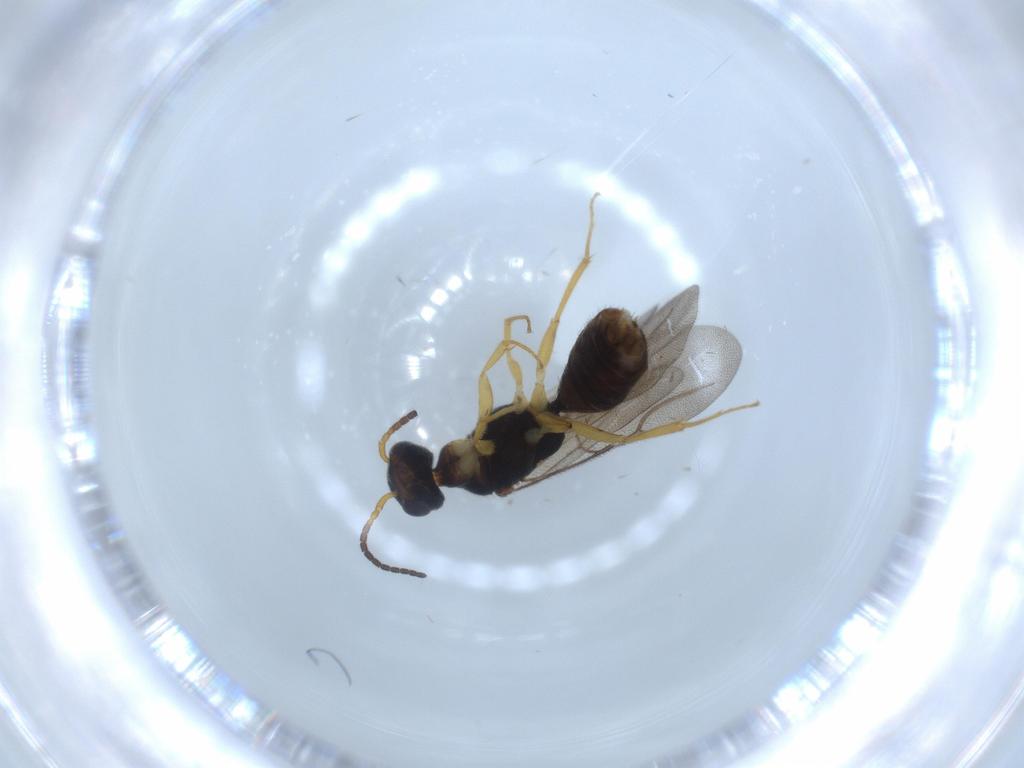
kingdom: Animalia
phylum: Arthropoda
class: Insecta
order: Hymenoptera
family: Bethylidae
